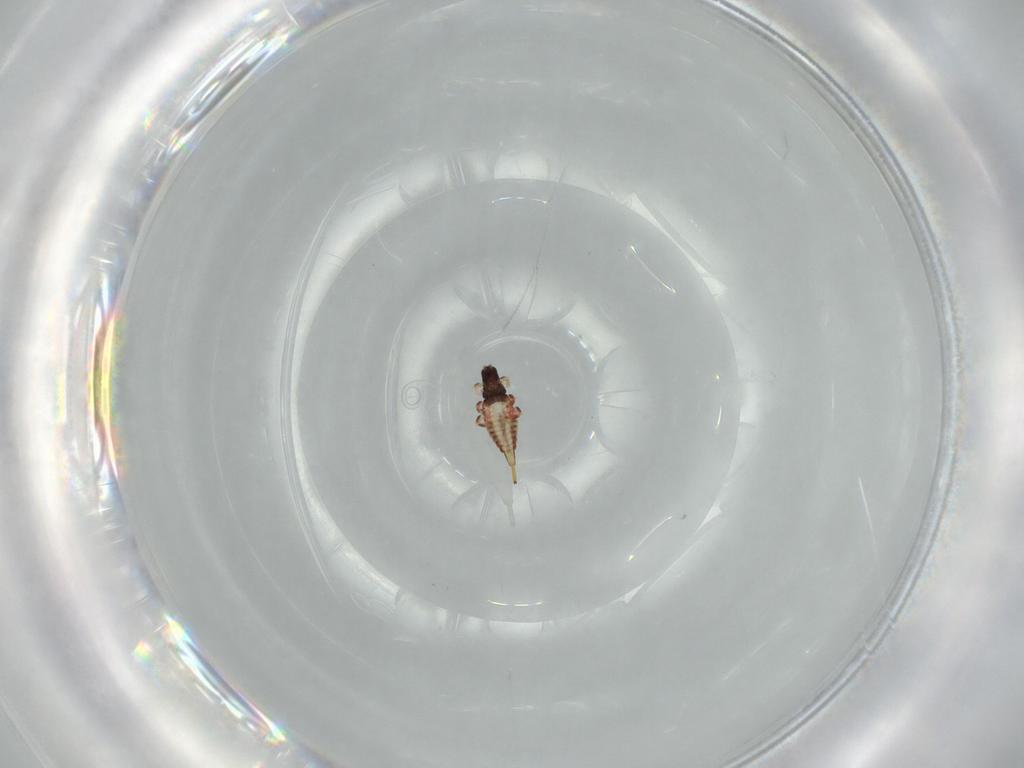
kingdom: Animalia
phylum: Arthropoda
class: Insecta
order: Thysanoptera
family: Phlaeothripidae
